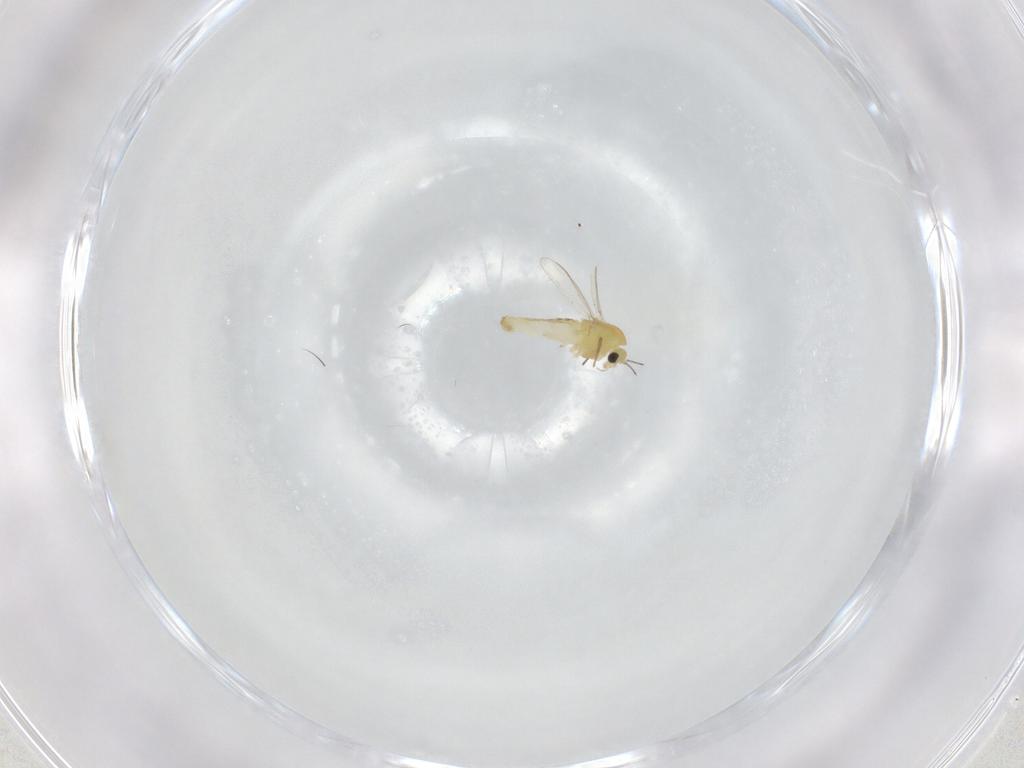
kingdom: Animalia
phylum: Arthropoda
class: Insecta
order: Diptera
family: Chironomidae
